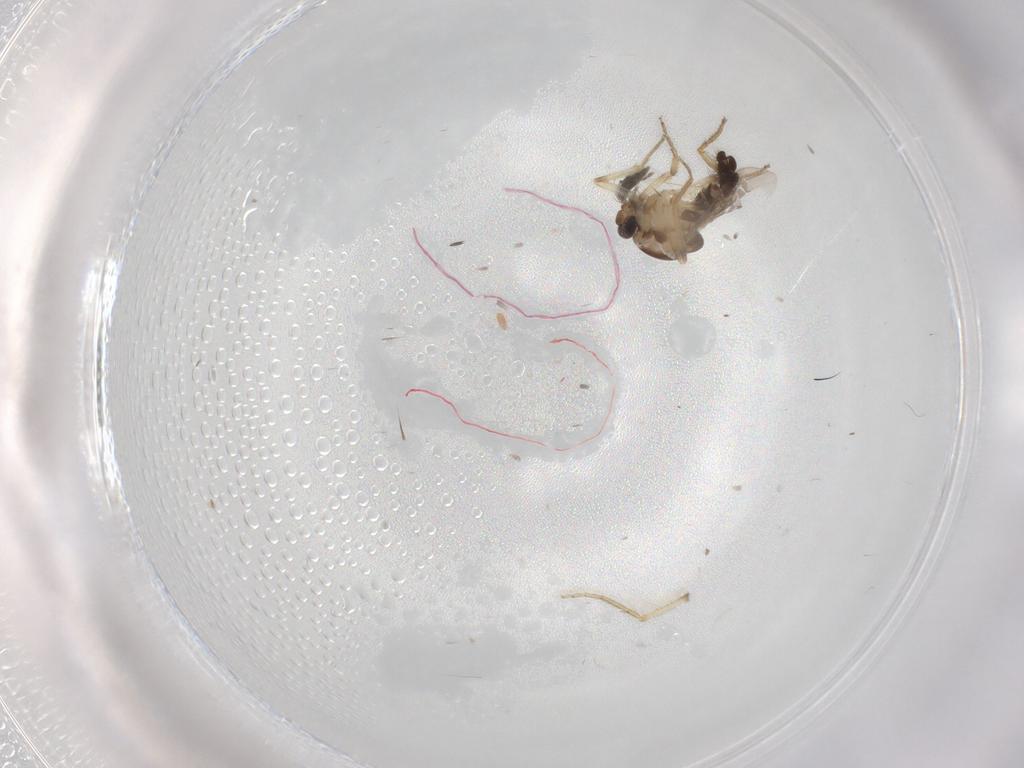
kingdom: Animalia
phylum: Arthropoda
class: Insecta
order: Diptera
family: Ceratopogonidae
